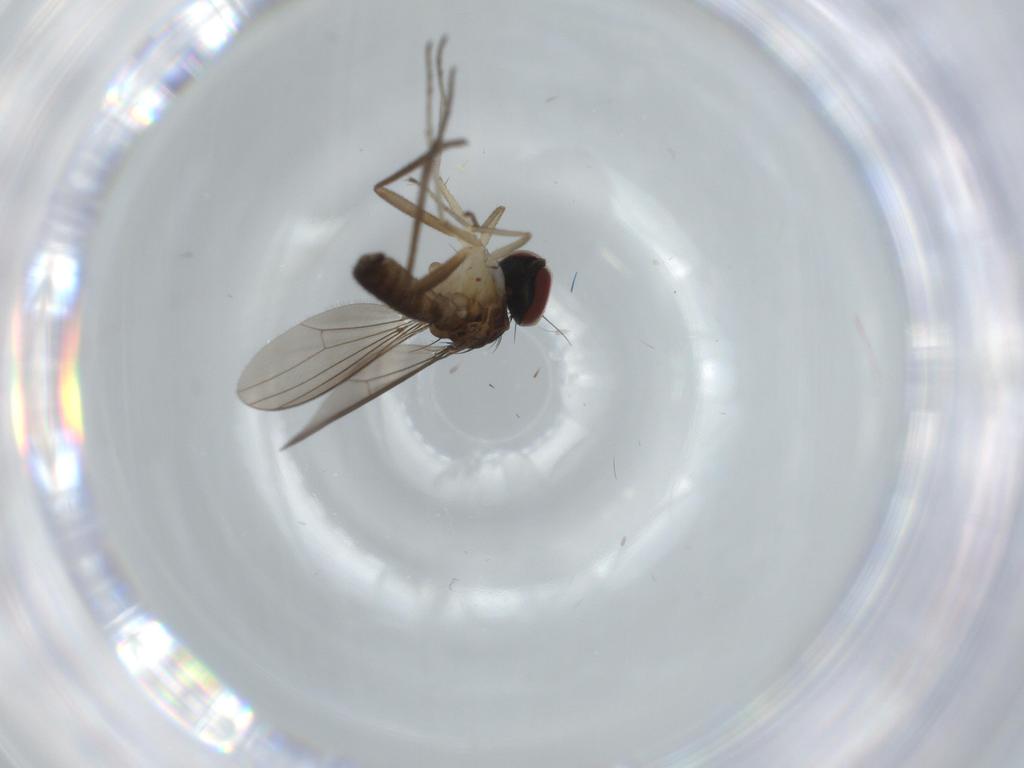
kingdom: Animalia
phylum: Arthropoda
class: Insecta
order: Diptera
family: Dolichopodidae
